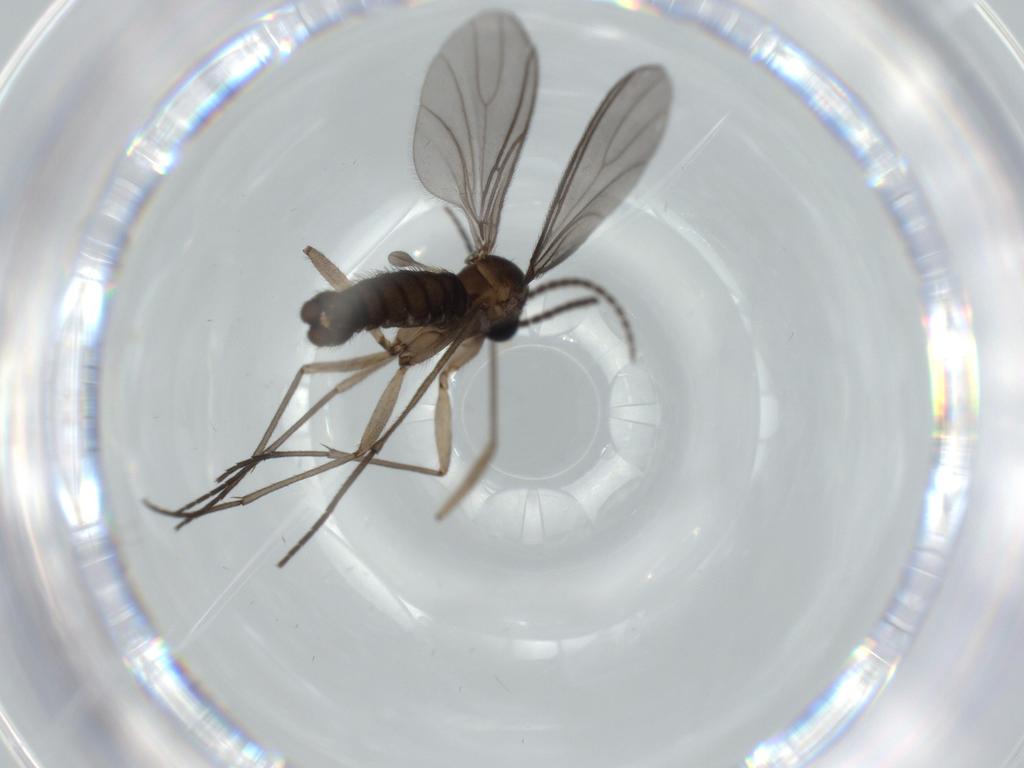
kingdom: Animalia
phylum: Arthropoda
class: Insecta
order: Diptera
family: Sciaridae
